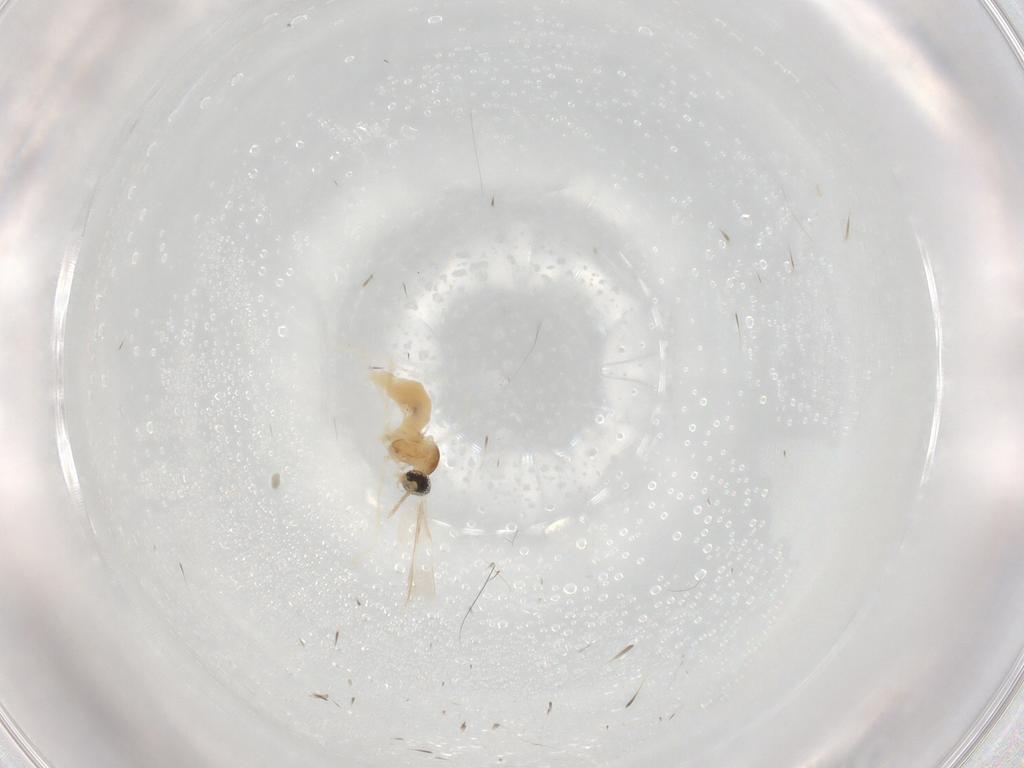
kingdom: Animalia
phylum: Arthropoda
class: Insecta
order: Diptera
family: Cecidomyiidae
